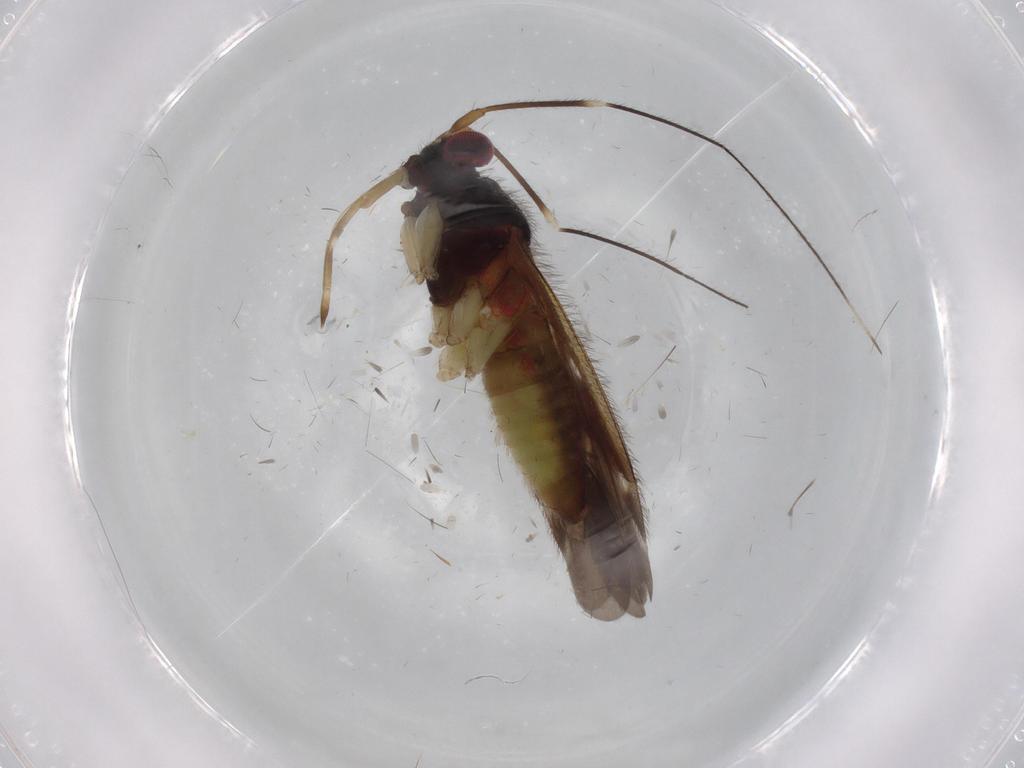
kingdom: Animalia
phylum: Arthropoda
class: Insecta
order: Hemiptera
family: Miridae
